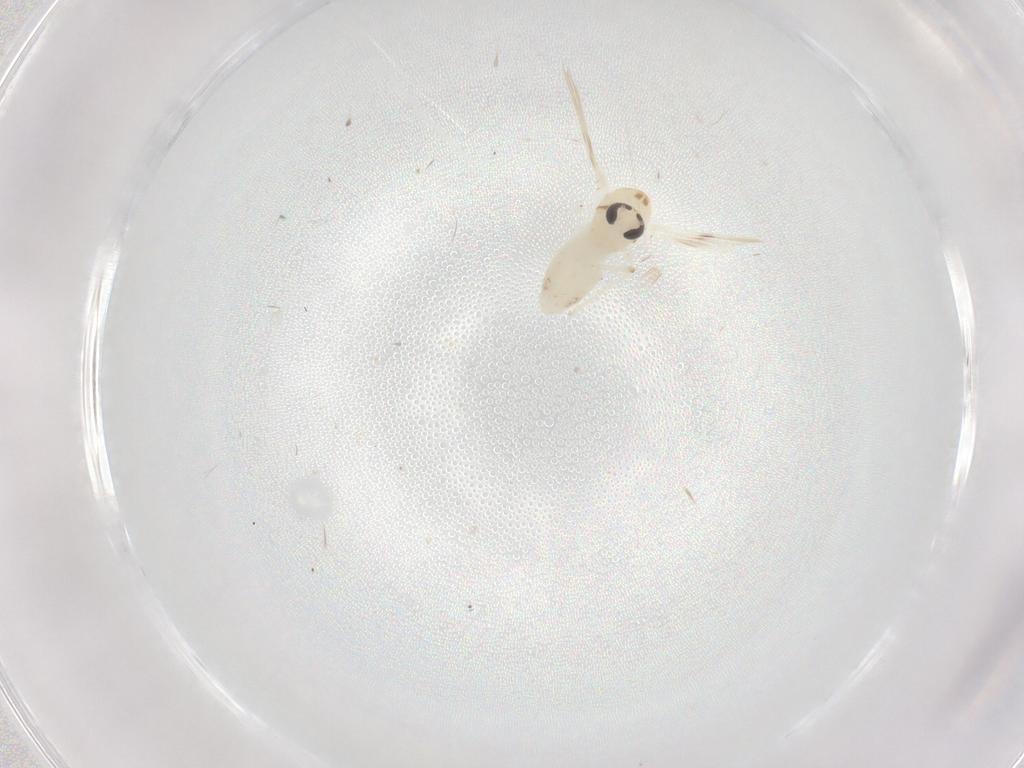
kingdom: Animalia
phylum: Arthropoda
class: Insecta
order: Diptera
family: Chironomidae
